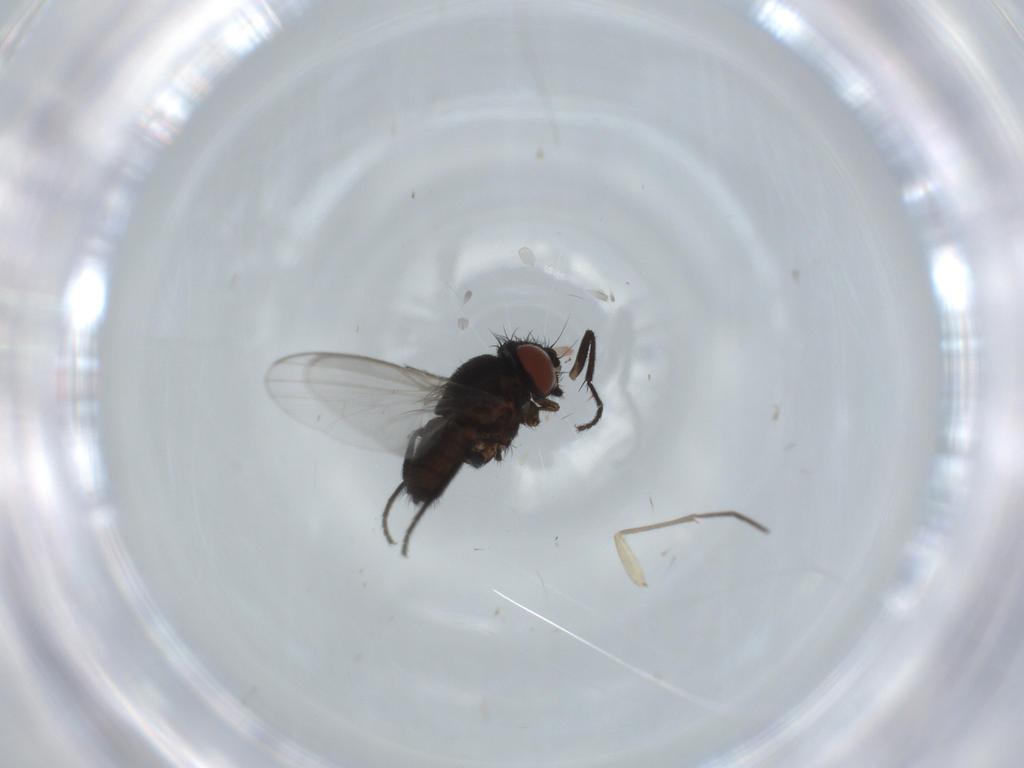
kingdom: Animalia
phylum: Arthropoda
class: Insecta
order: Diptera
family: Milichiidae
